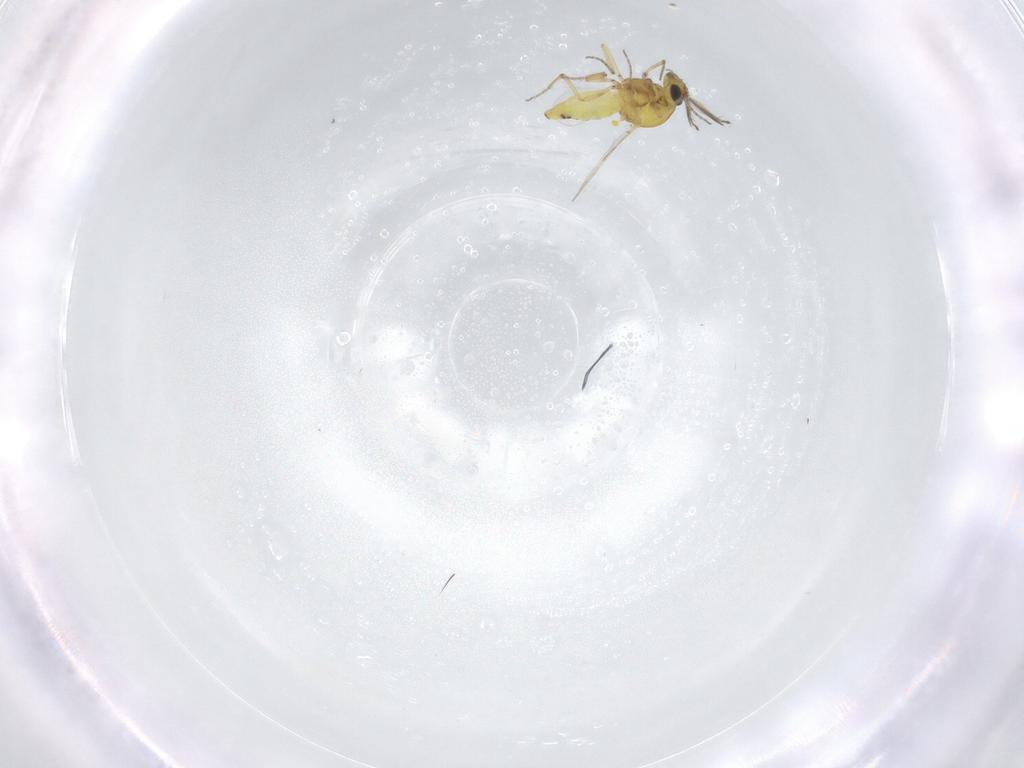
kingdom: Animalia
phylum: Arthropoda
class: Insecta
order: Diptera
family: Ceratopogonidae
